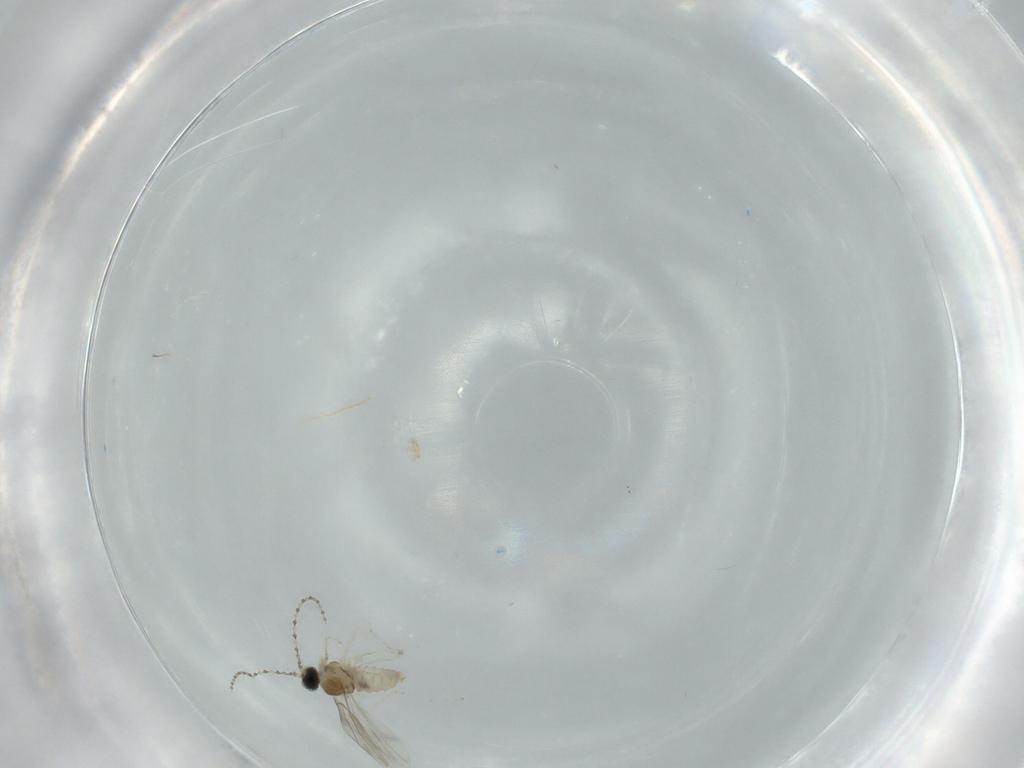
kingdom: Animalia
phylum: Arthropoda
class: Insecta
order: Diptera
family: Cecidomyiidae
